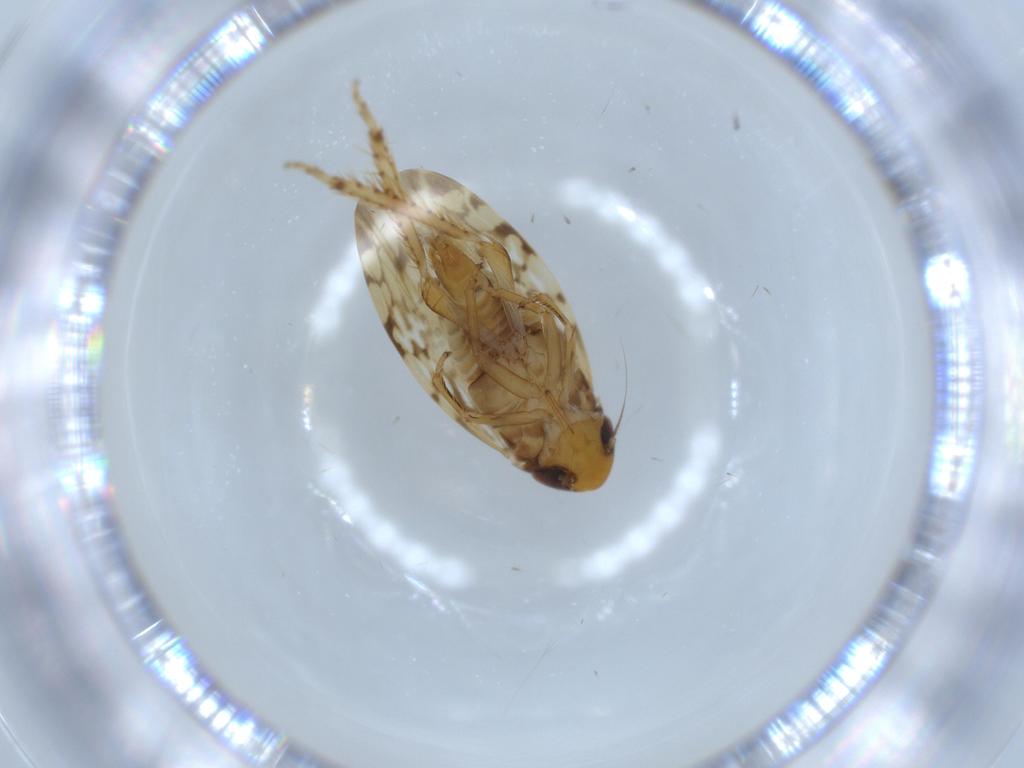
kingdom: Animalia
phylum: Arthropoda
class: Insecta
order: Hemiptera
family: Cicadellidae
